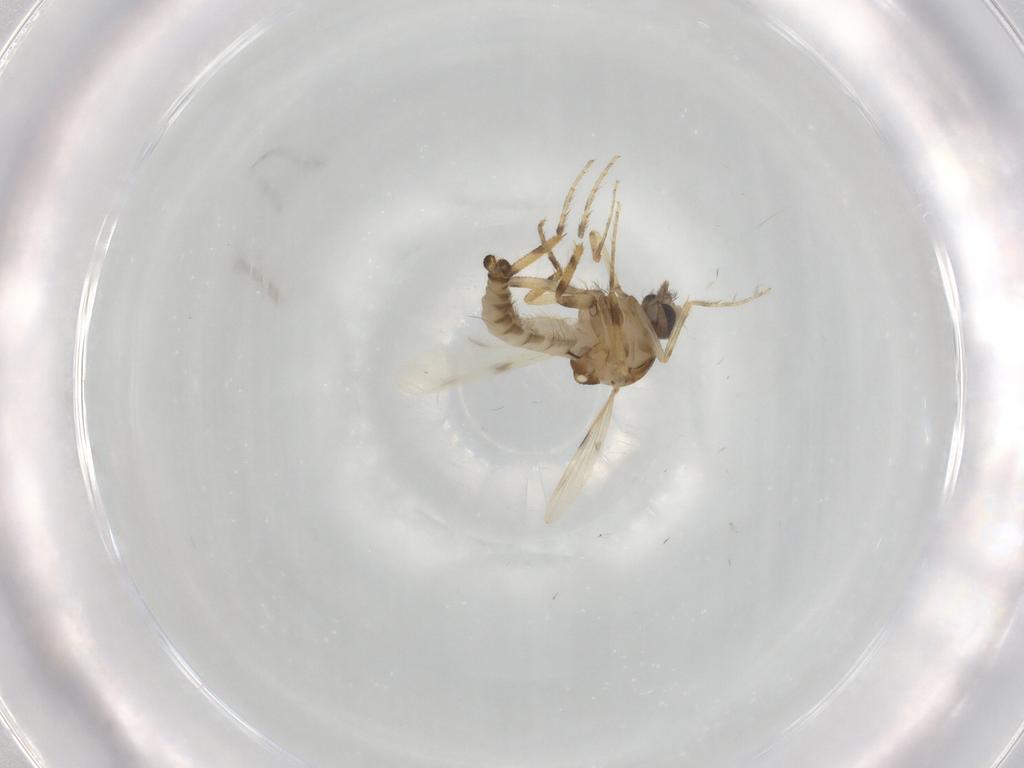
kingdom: Animalia
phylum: Arthropoda
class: Insecta
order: Diptera
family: Ceratopogonidae
